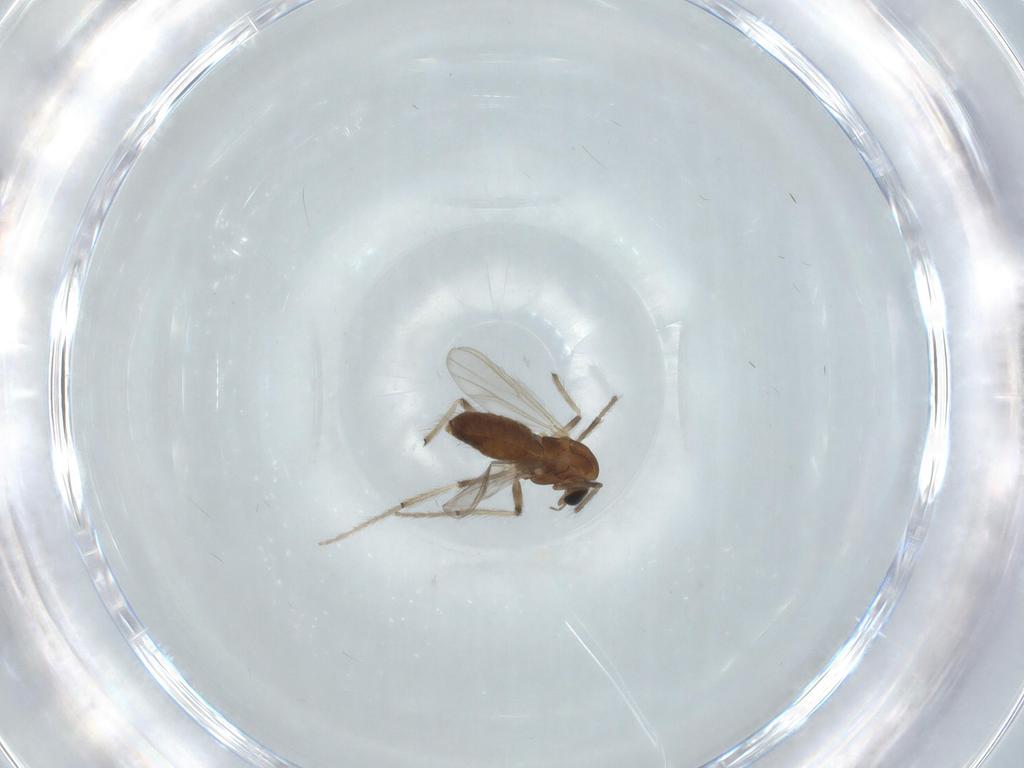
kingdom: Animalia
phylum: Arthropoda
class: Insecta
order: Diptera
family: Chironomidae
